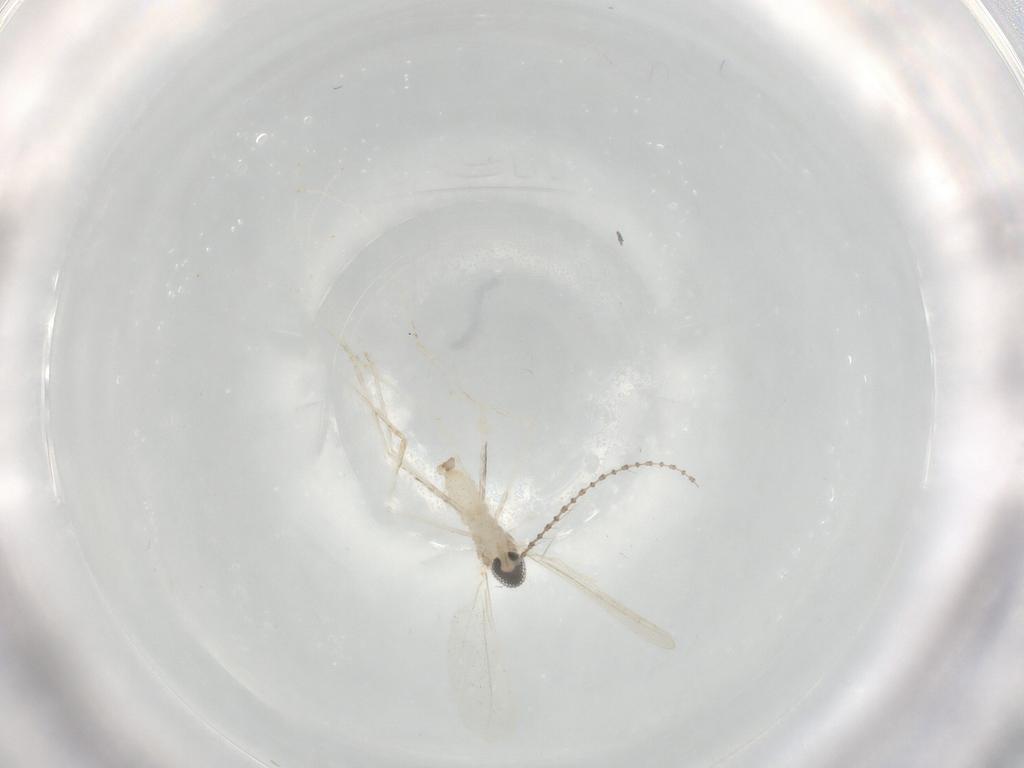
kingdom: Animalia
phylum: Arthropoda
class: Insecta
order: Diptera
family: Cecidomyiidae
